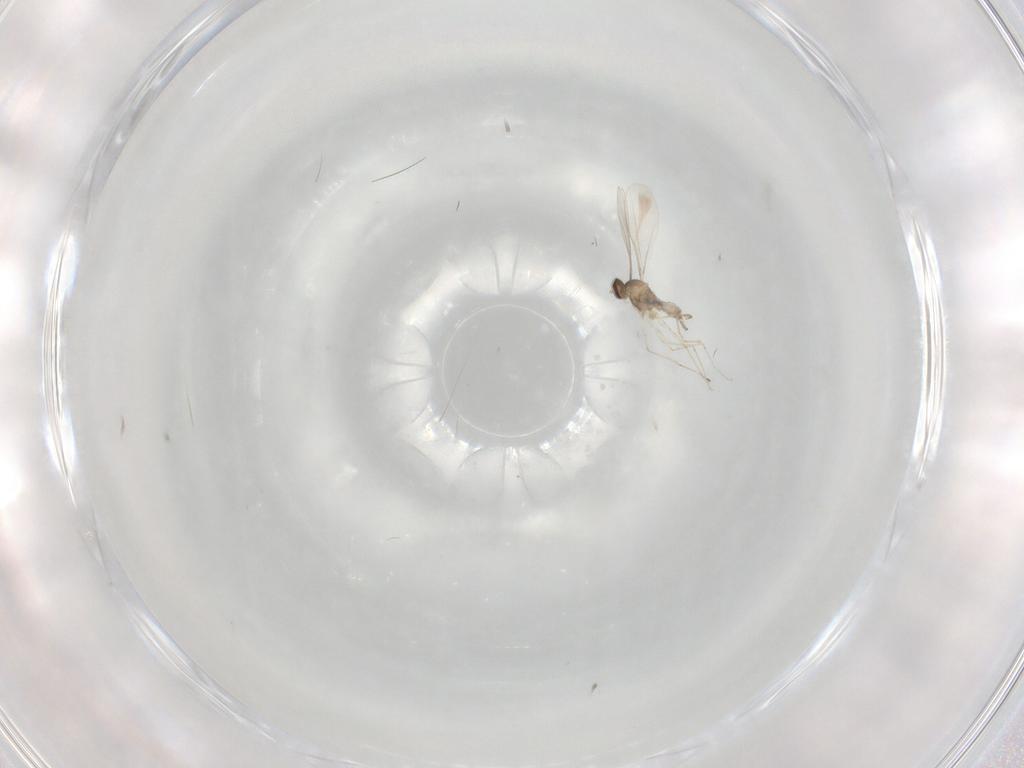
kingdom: Animalia
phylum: Arthropoda
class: Insecta
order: Diptera
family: Cecidomyiidae
